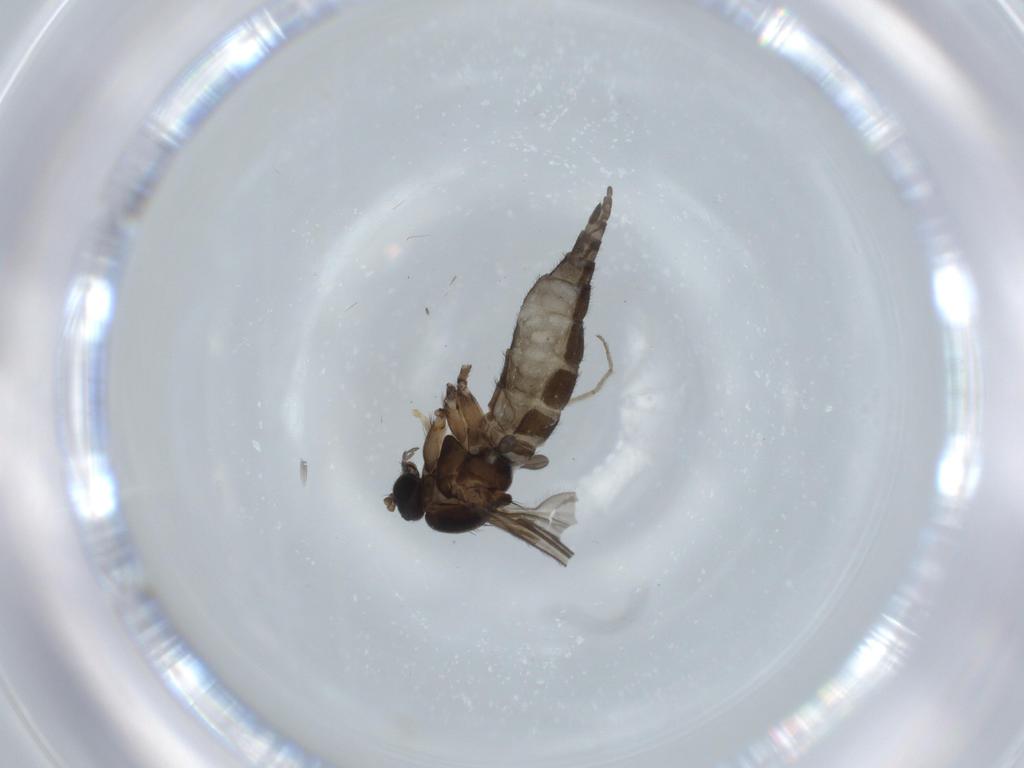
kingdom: Animalia
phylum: Arthropoda
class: Insecta
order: Diptera
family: Sciaridae
